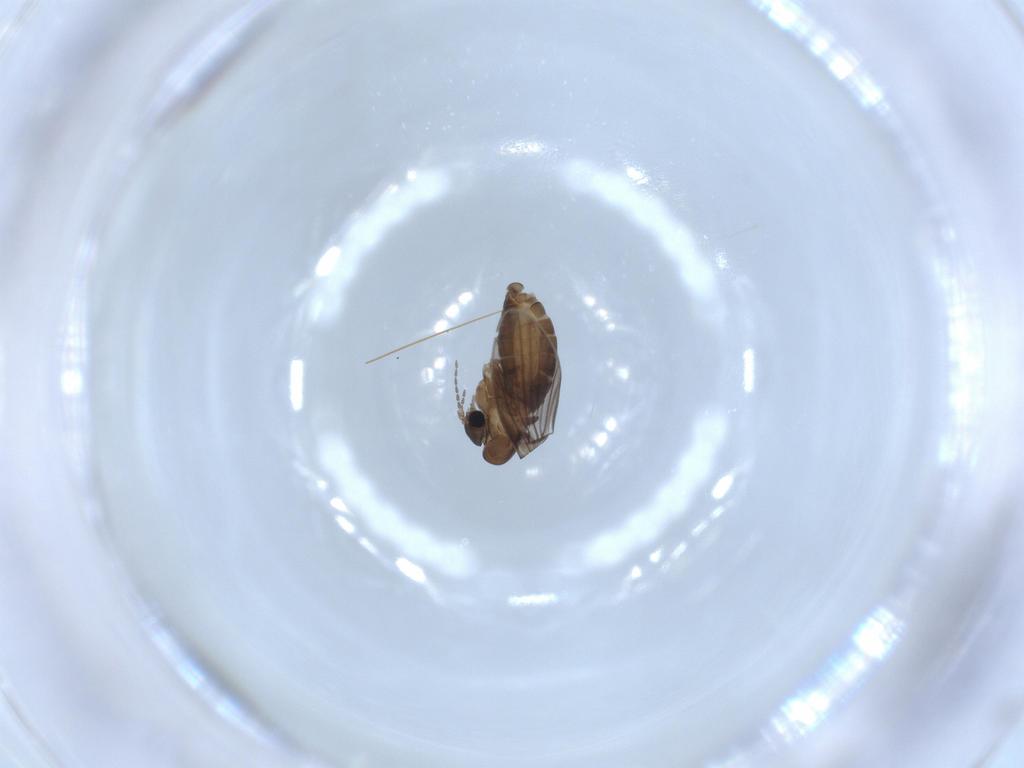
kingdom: Animalia
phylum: Arthropoda
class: Insecta
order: Diptera
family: Psychodidae
